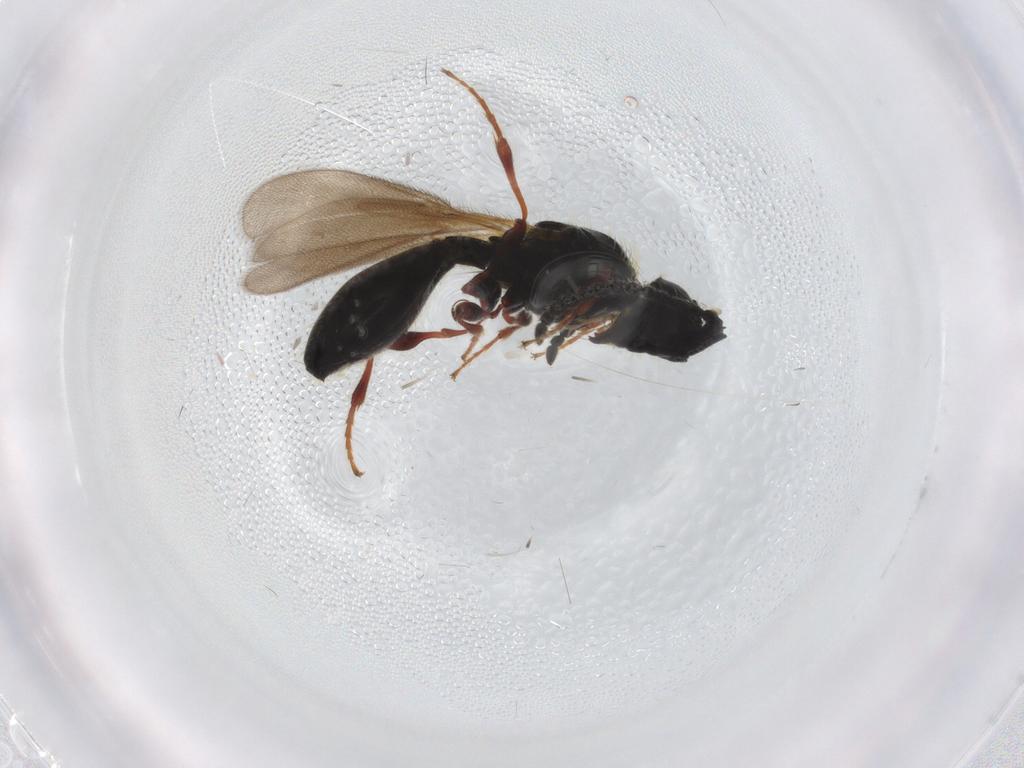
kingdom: Animalia
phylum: Arthropoda
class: Insecta
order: Hymenoptera
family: Diapriidae
